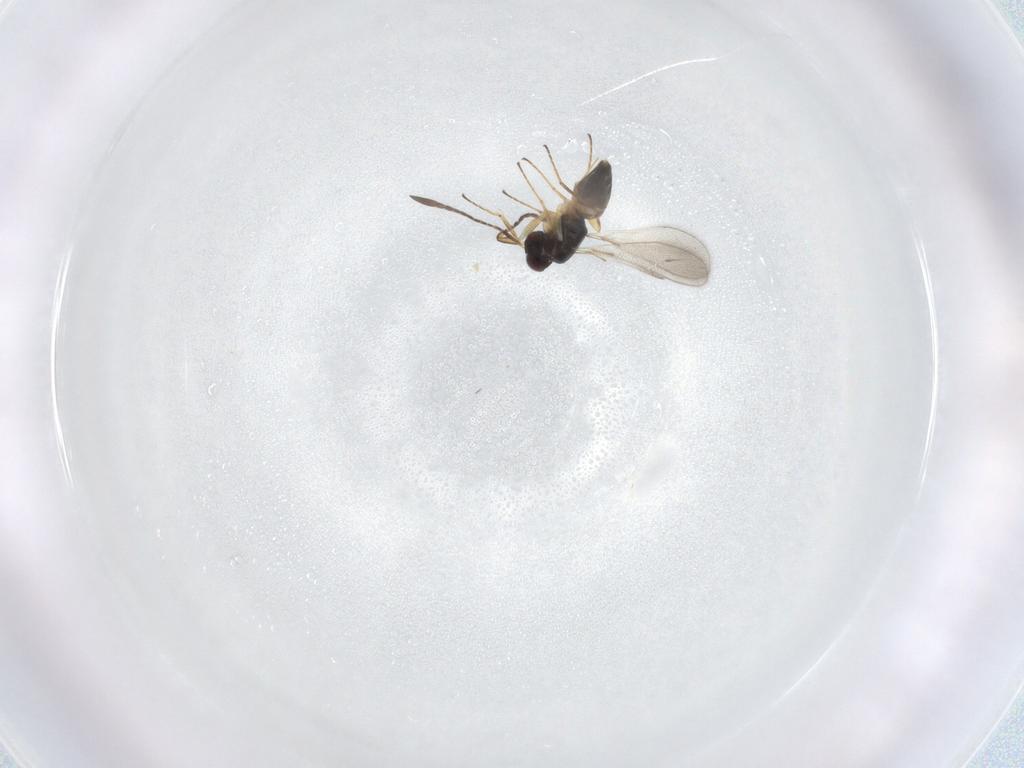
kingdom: Animalia
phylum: Arthropoda
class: Insecta
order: Hymenoptera
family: Mymaridae
